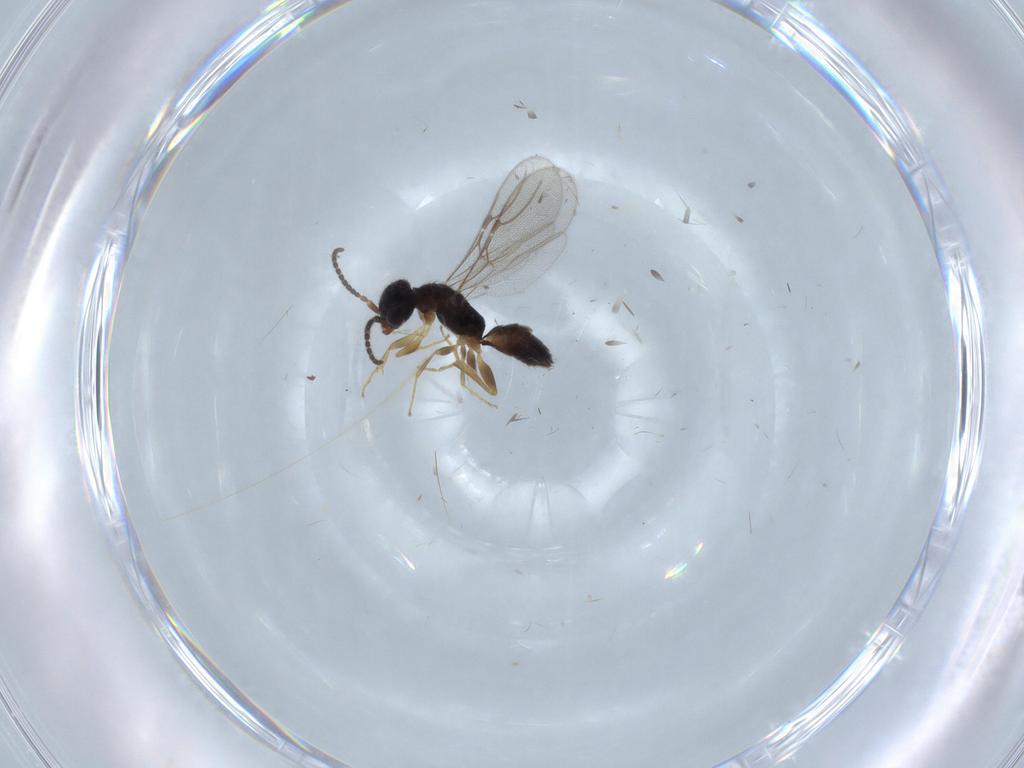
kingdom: Animalia
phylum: Arthropoda
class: Insecta
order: Hymenoptera
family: Bethylidae
